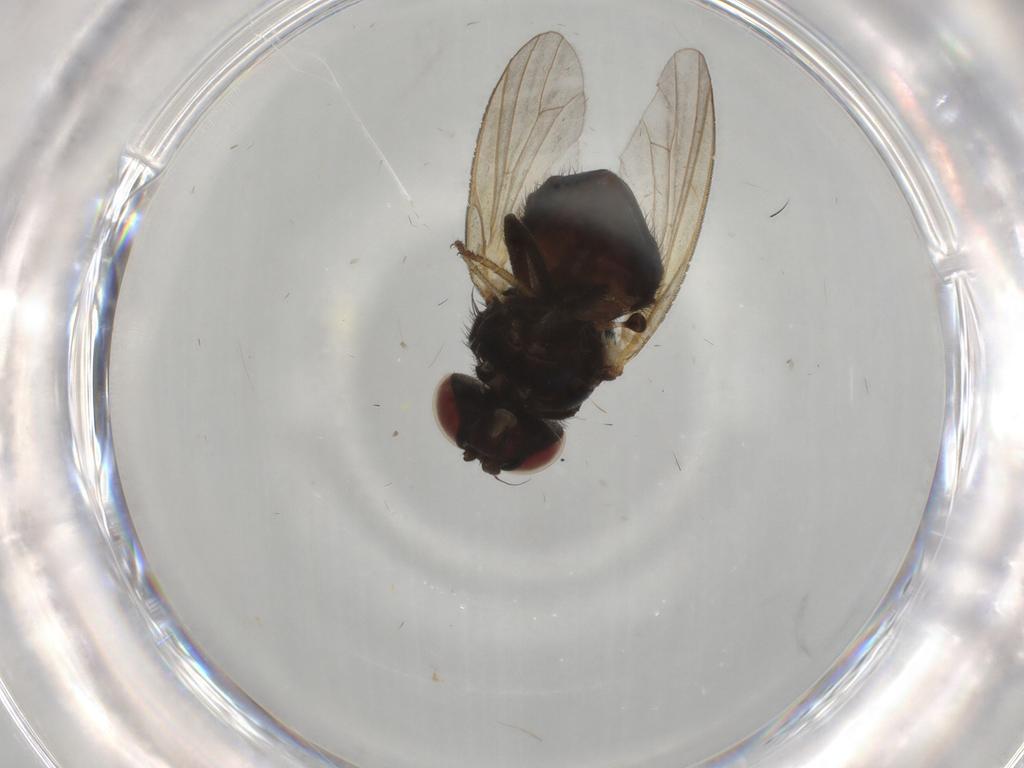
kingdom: Animalia
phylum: Arthropoda
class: Insecta
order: Diptera
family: Lonchaeidae
